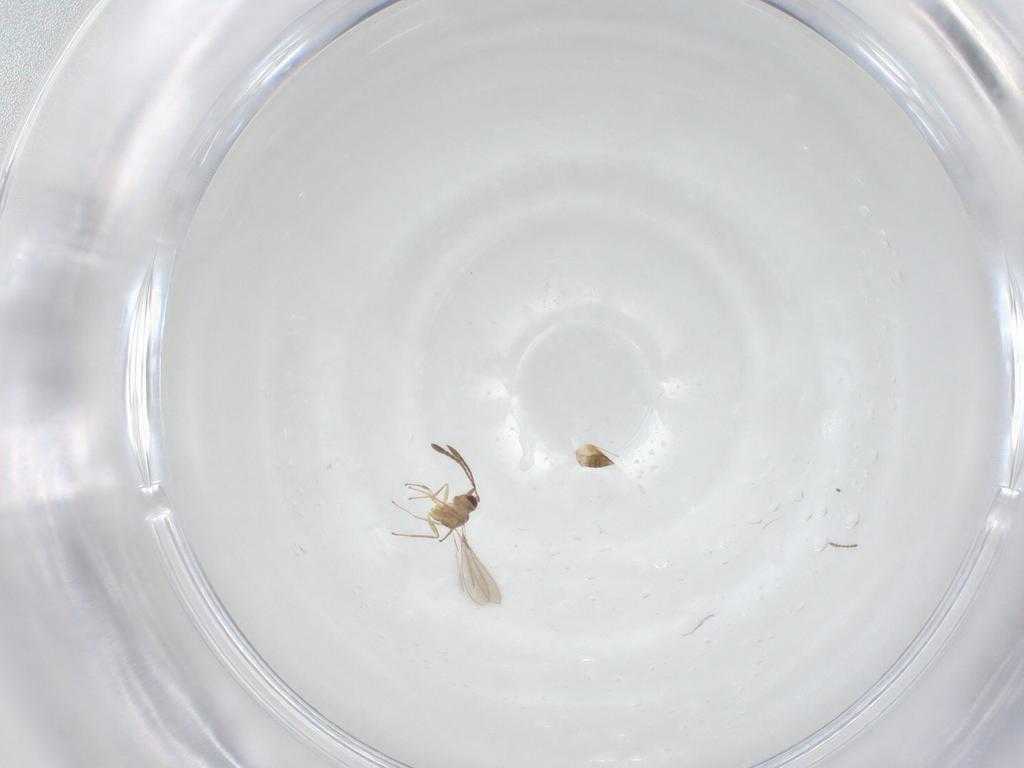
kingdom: Animalia
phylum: Arthropoda
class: Insecta
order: Hymenoptera
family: Mymaridae
